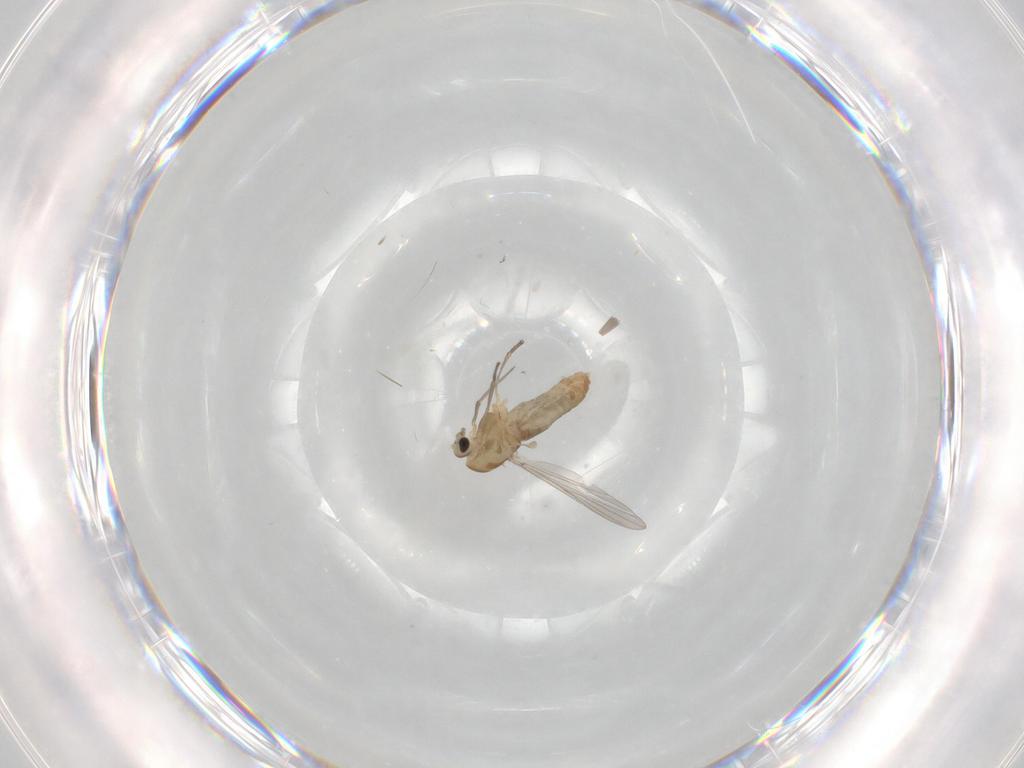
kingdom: Animalia
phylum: Arthropoda
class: Insecta
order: Diptera
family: Chironomidae
